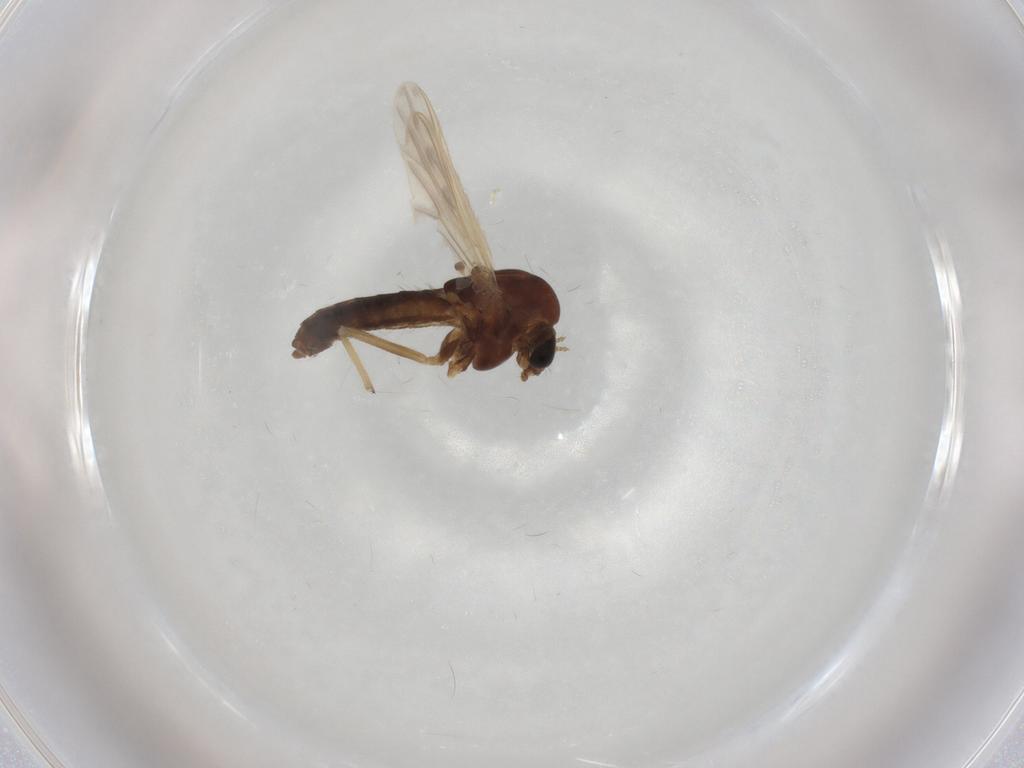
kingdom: Animalia
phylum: Arthropoda
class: Insecta
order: Diptera
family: Chironomidae
